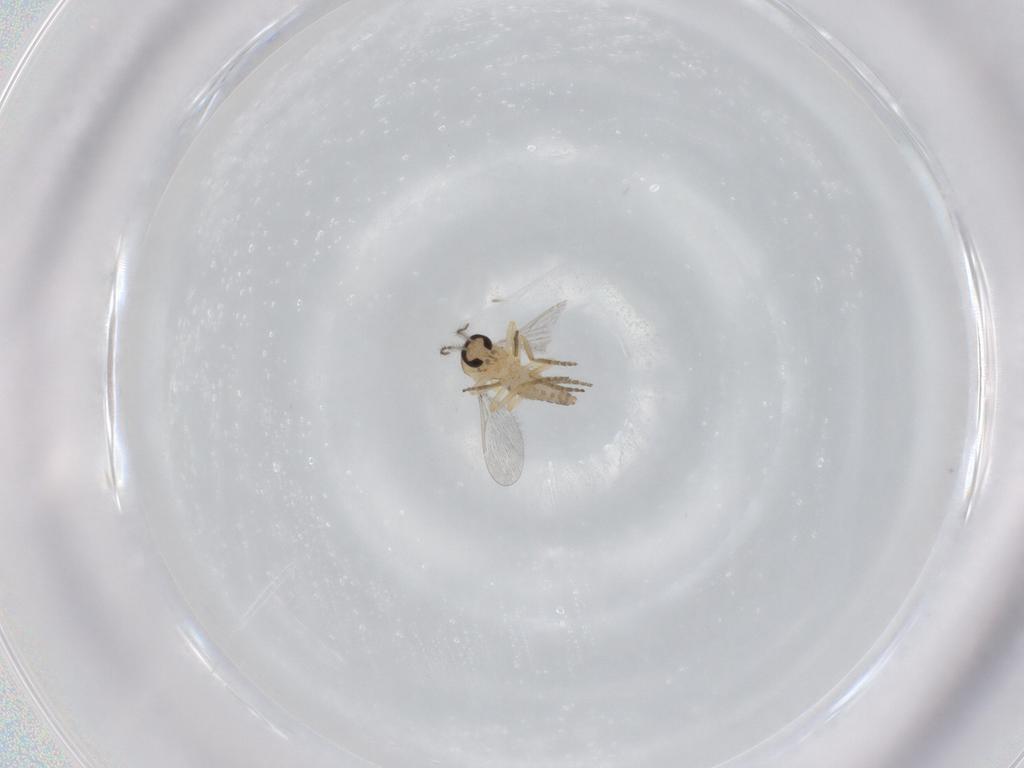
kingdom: Animalia
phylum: Arthropoda
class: Insecta
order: Diptera
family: Ceratopogonidae
